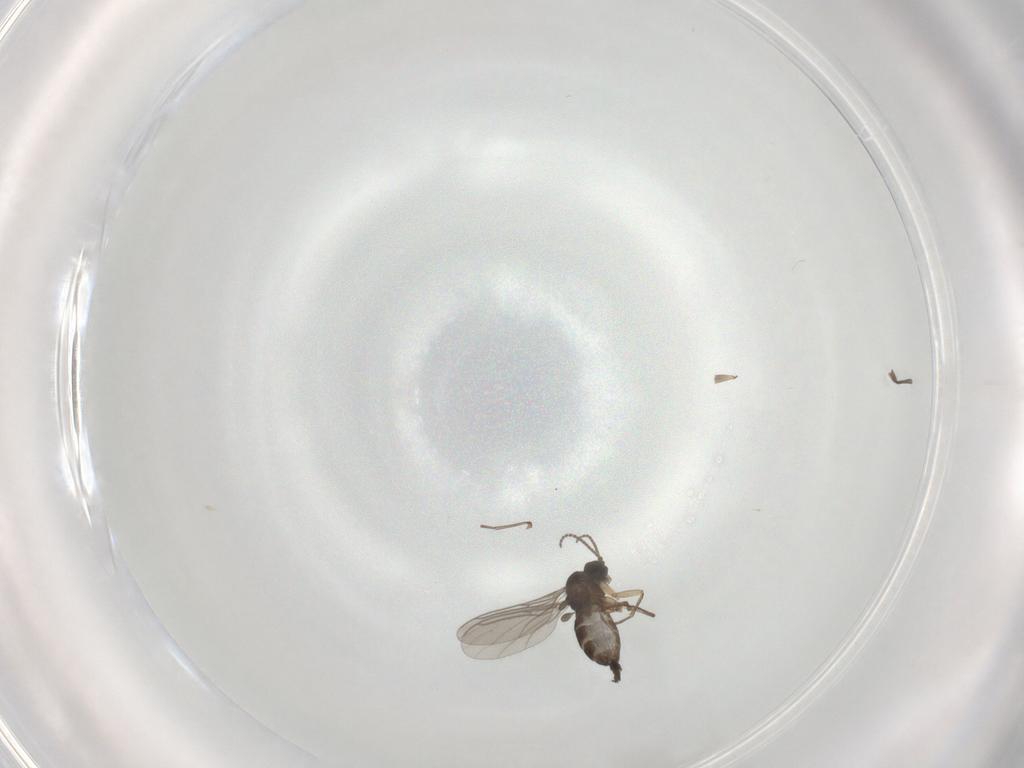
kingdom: Animalia
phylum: Arthropoda
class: Insecta
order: Diptera
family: Sciaridae
